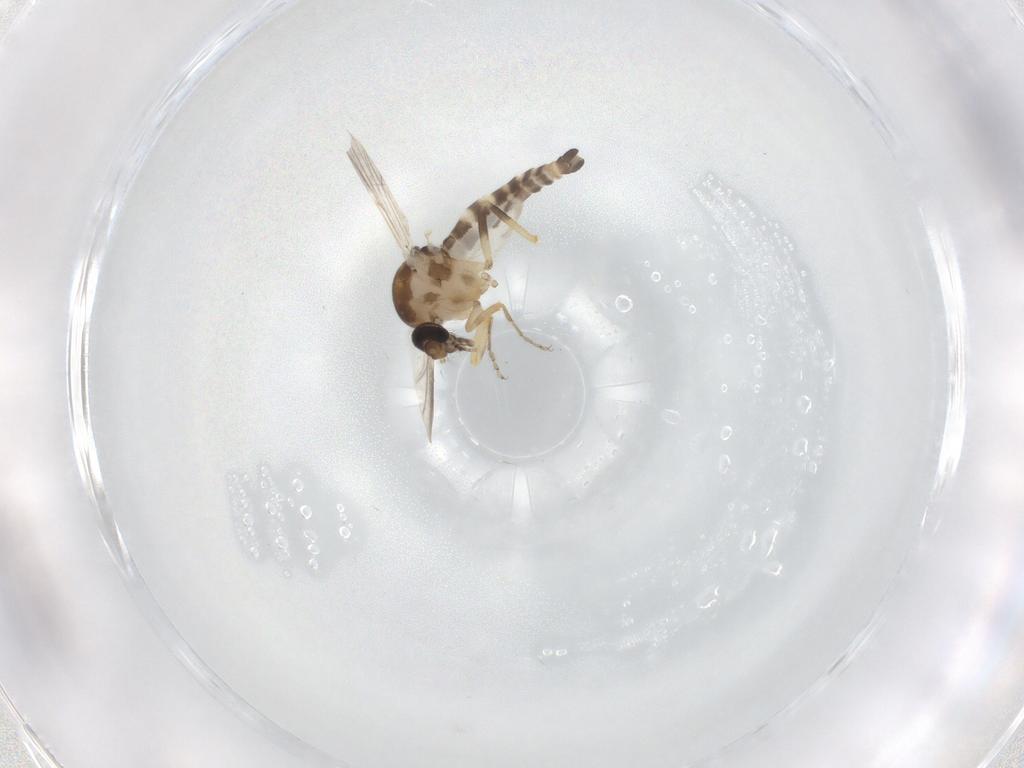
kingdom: Animalia
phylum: Arthropoda
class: Insecta
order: Diptera
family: Ceratopogonidae
